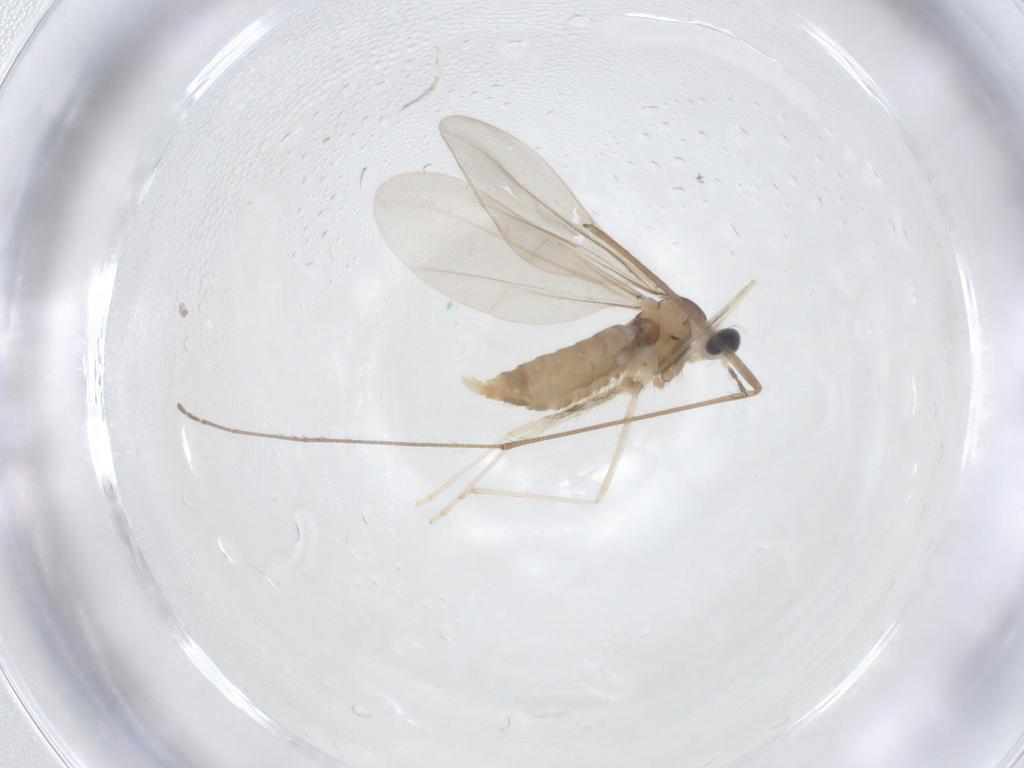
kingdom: Animalia
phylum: Arthropoda
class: Insecta
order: Diptera
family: Limoniidae
